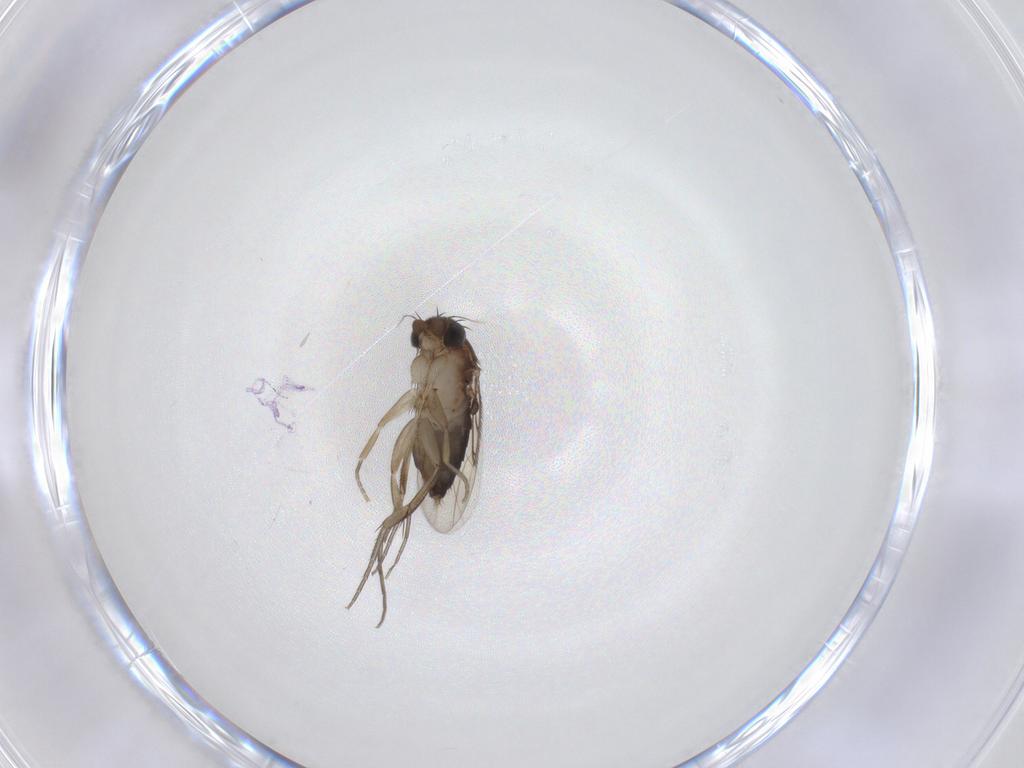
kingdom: Animalia
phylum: Arthropoda
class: Insecta
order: Diptera
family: Phoridae
